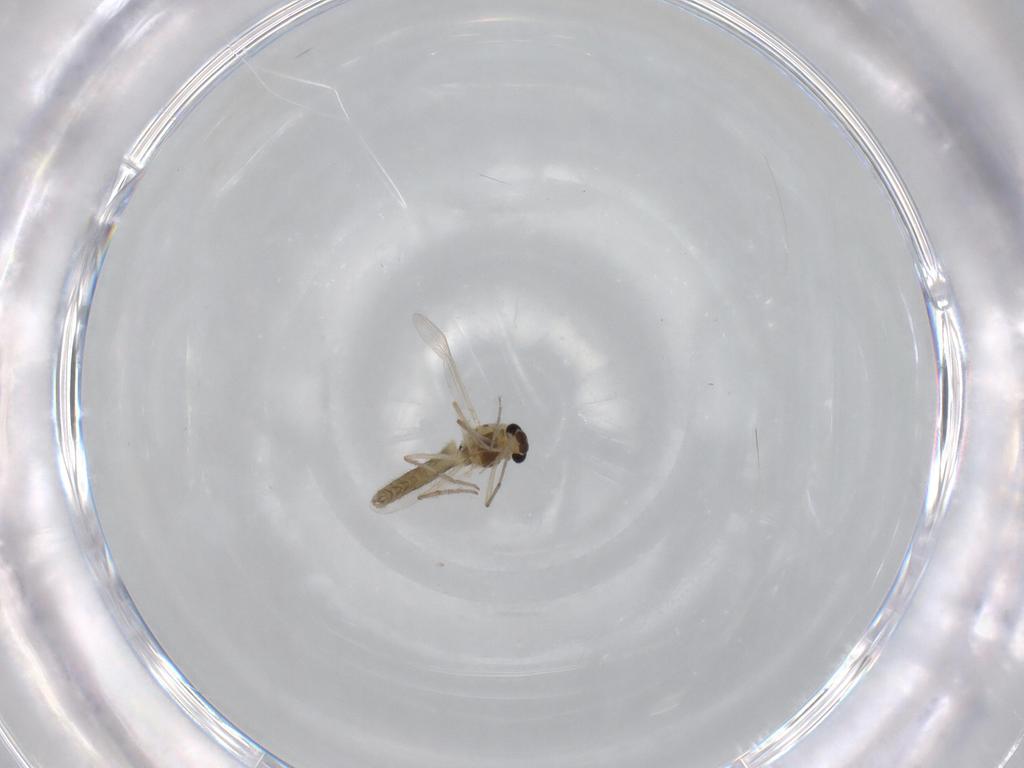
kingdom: Animalia
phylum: Arthropoda
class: Insecta
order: Diptera
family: Chironomidae
